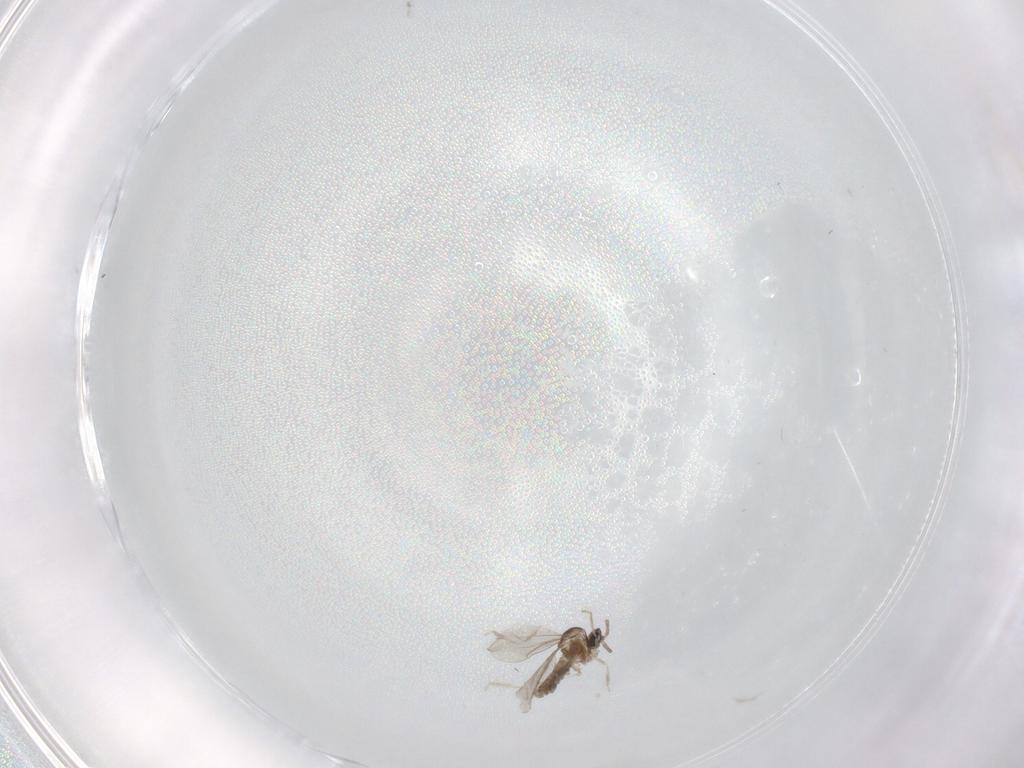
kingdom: Animalia
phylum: Arthropoda
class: Insecta
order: Diptera
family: Cecidomyiidae
